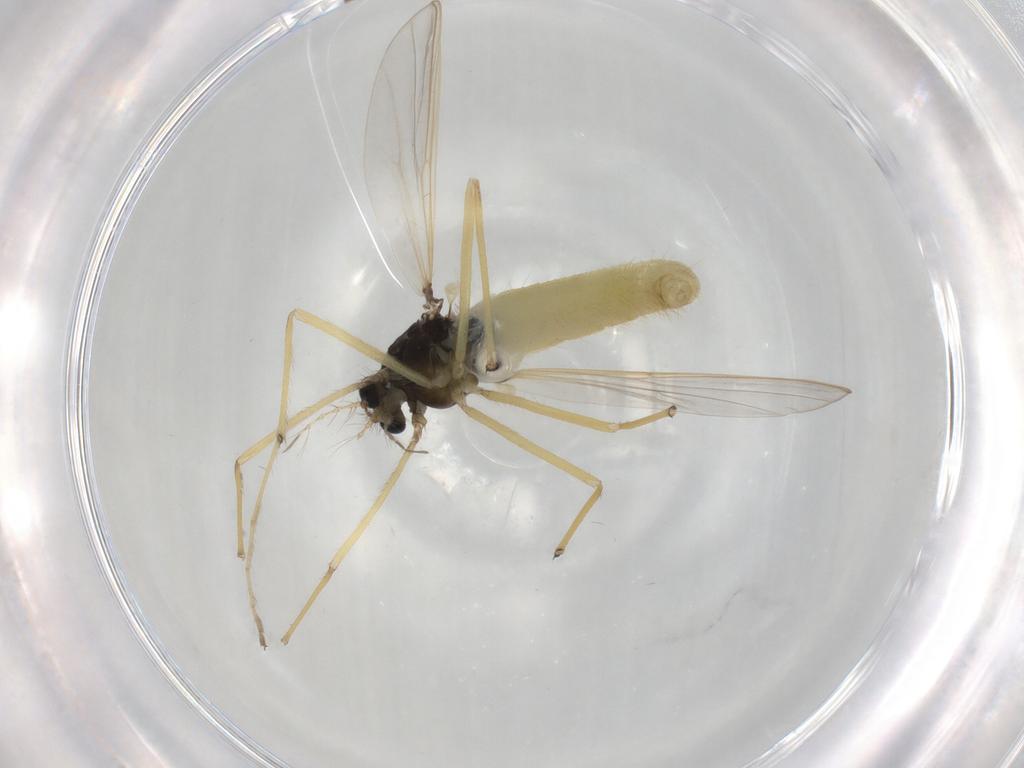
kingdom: Animalia
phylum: Arthropoda
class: Insecta
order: Diptera
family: Chironomidae
